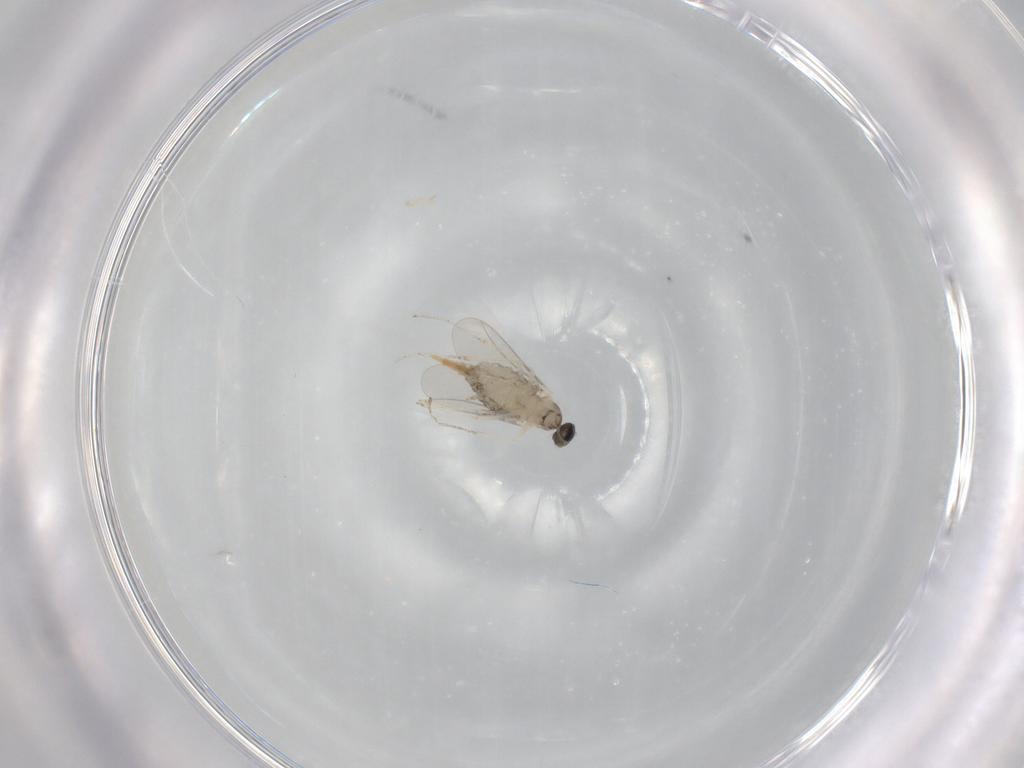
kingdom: Animalia
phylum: Arthropoda
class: Insecta
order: Diptera
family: Cecidomyiidae
